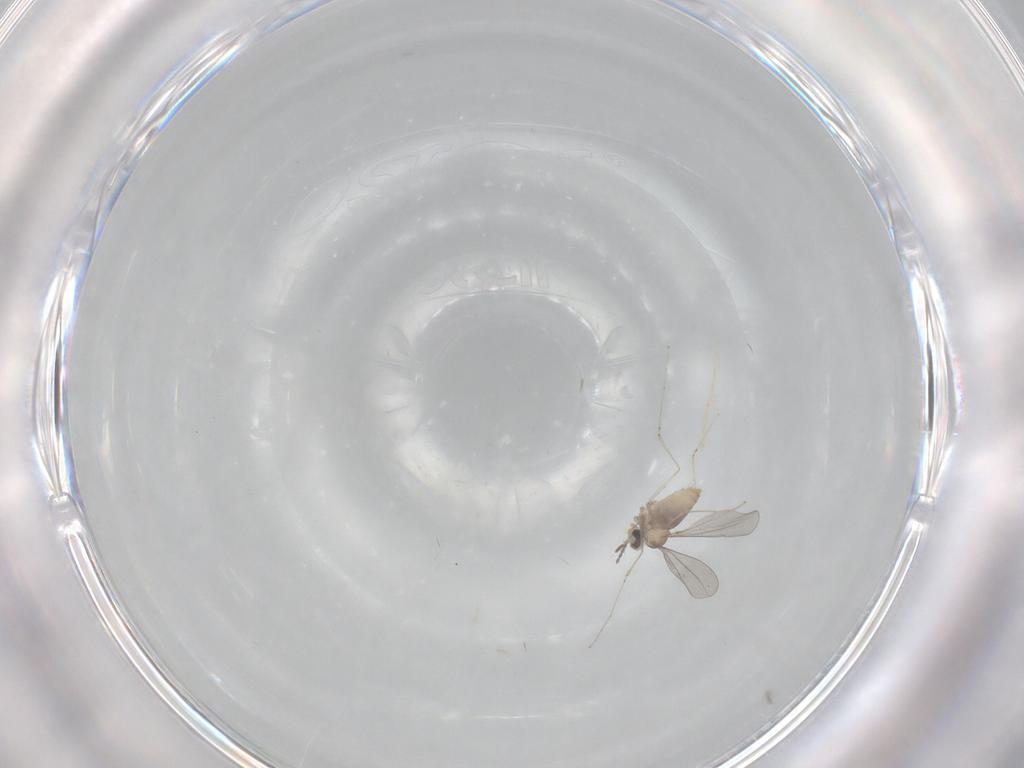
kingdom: Animalia
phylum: Arthropoda
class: Insecta
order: Diptera
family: Cecidomyiidae
